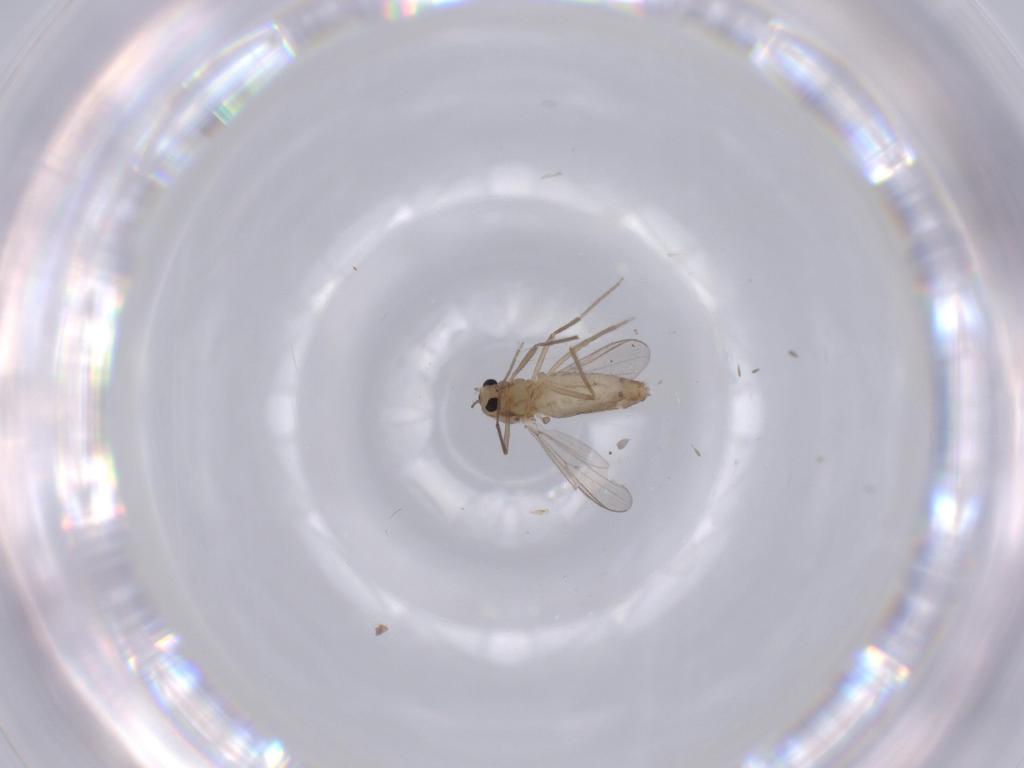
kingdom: Animalia
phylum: Arthropoda
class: Insecta
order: Diptera
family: Chironomidae
